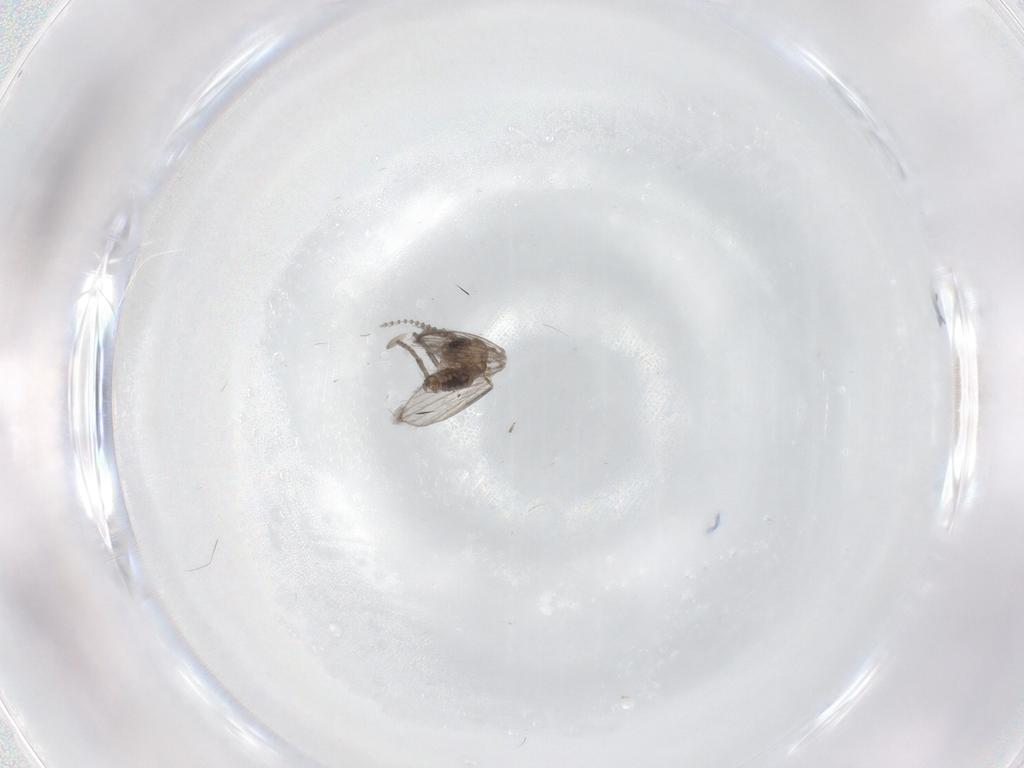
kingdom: Animalia
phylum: Arthropoda
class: Insecta
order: Diptera
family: Psychodidae
